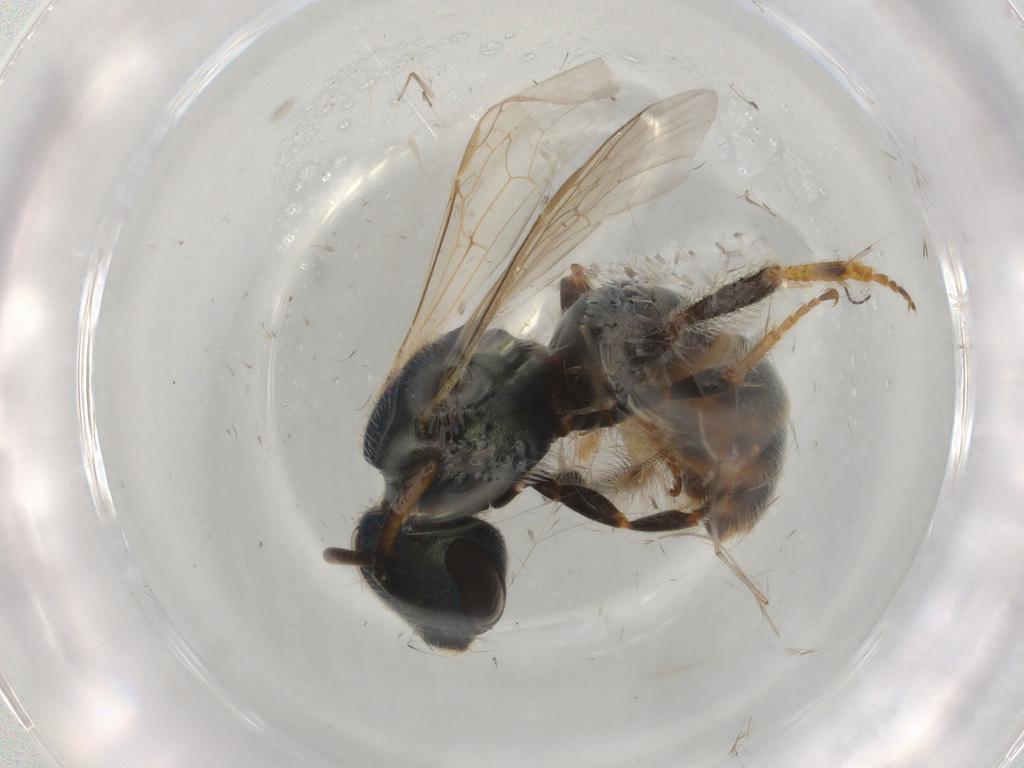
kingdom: Animalia
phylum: Arthropoda
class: Insecta
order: Hymenoptera
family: Halictidae
